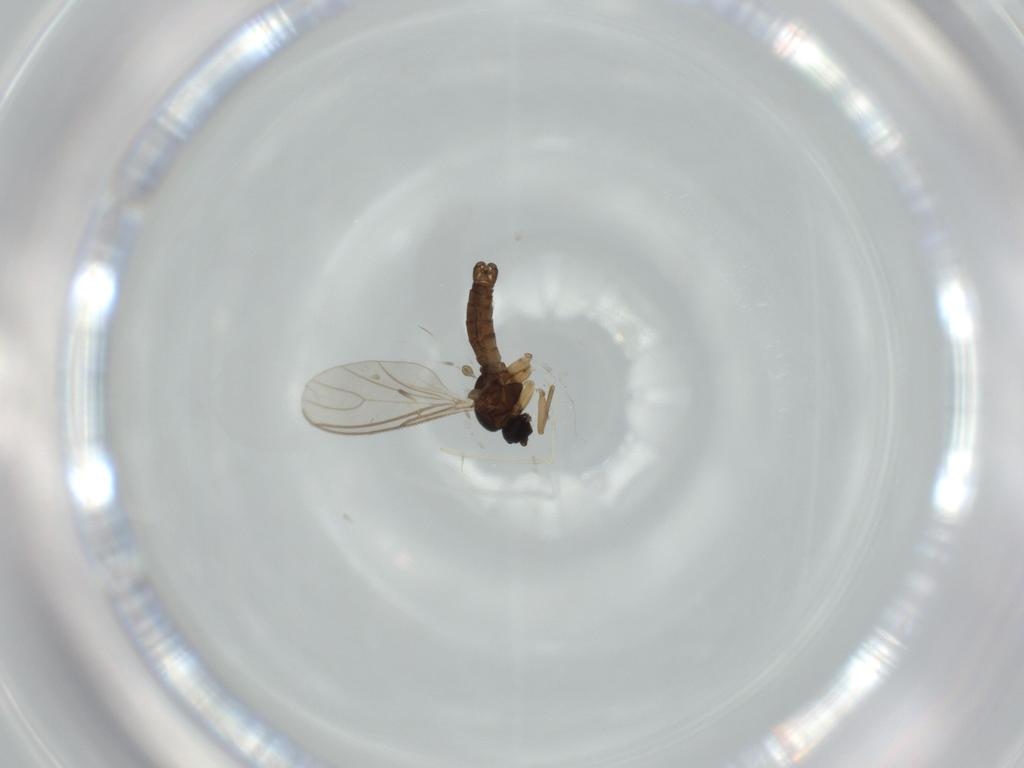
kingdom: Animalia
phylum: Arthropoda
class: Insecta
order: Diptera
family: Ceratopogonidae
